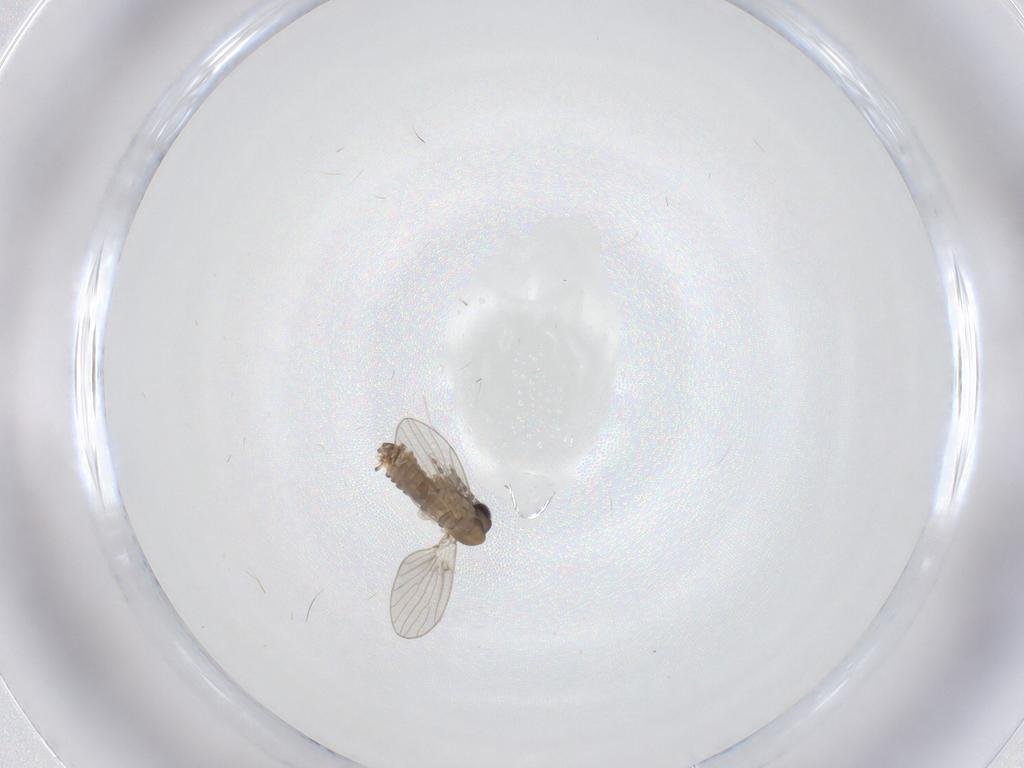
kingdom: Animalia
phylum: Arthropoda
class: Insecta
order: Diptera
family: Psychodidae
